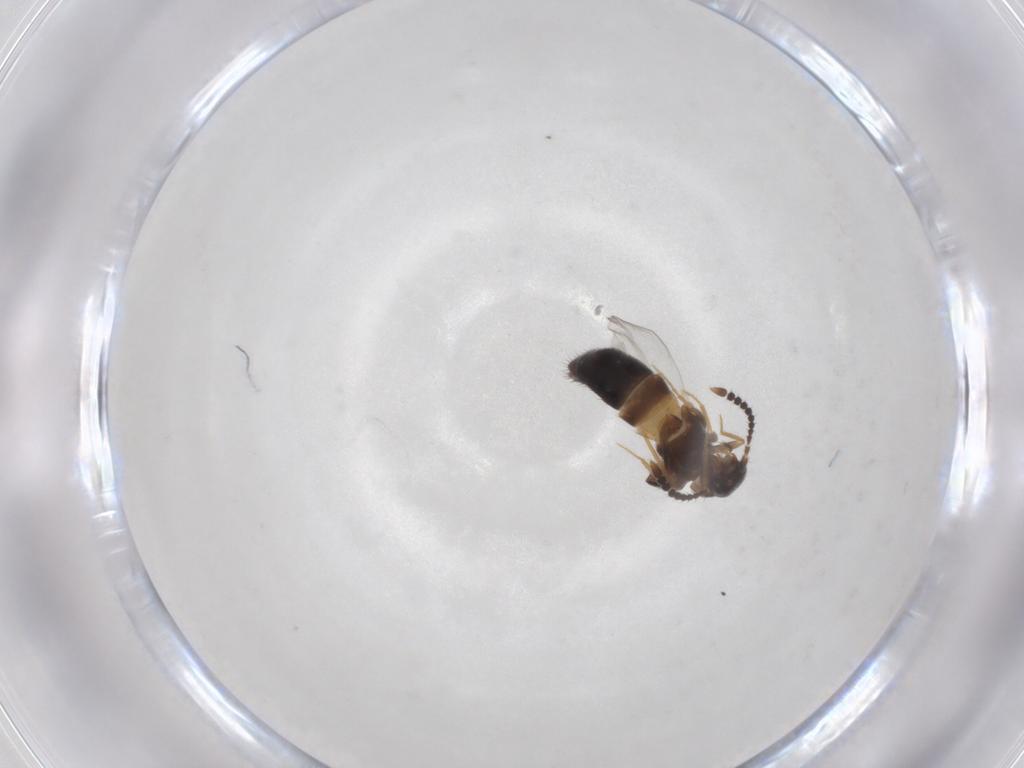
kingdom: Animalia
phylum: Arthropoda
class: Insecta
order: Coleoptera
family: Staphylinidae
